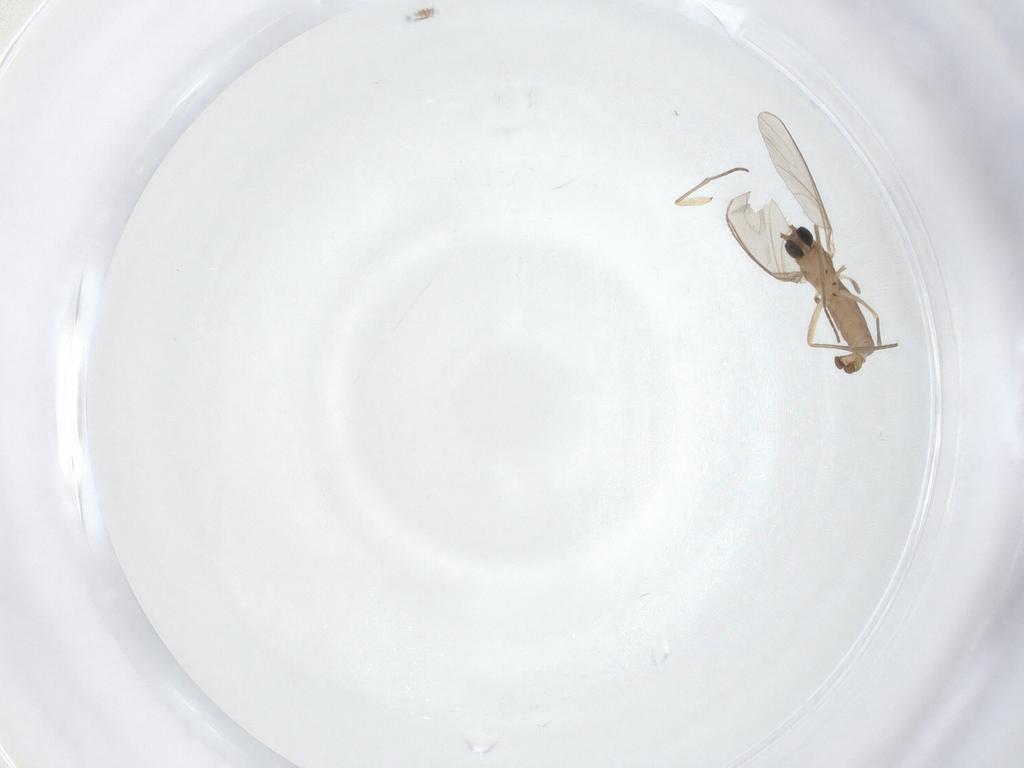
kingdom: Animalia
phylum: Arthropoda
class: Insecta
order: Diptera
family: Sciaridae
